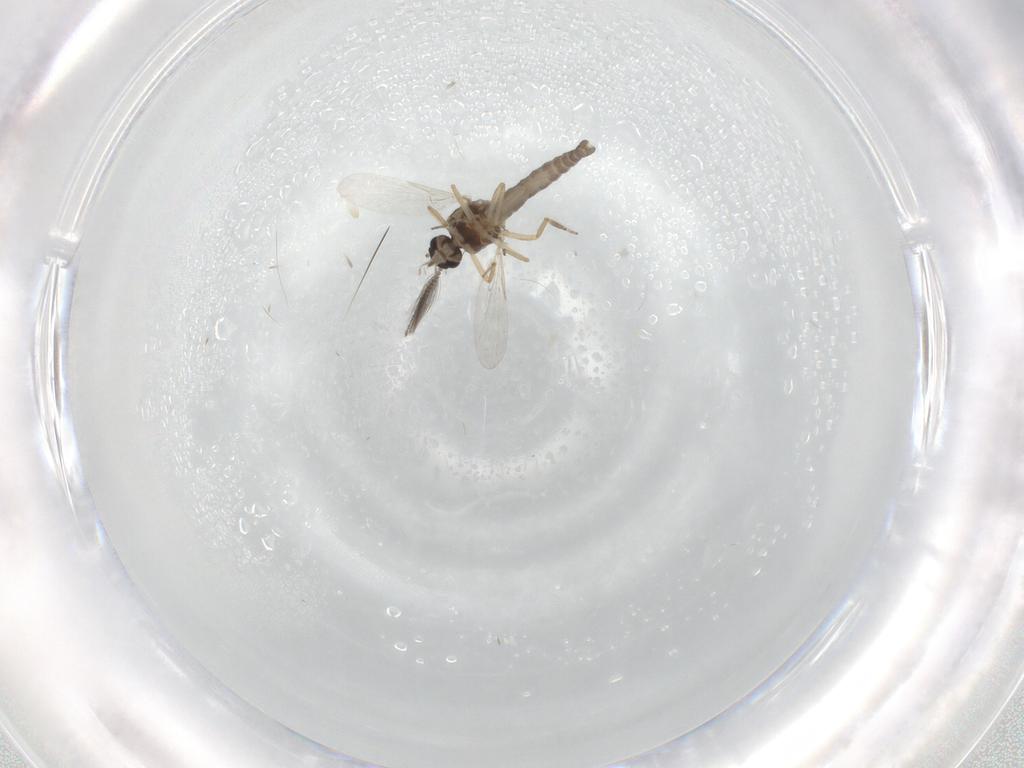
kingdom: Animalia
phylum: Arthropoda
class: Insecta
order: Diptera
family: Ceratopogonidae
